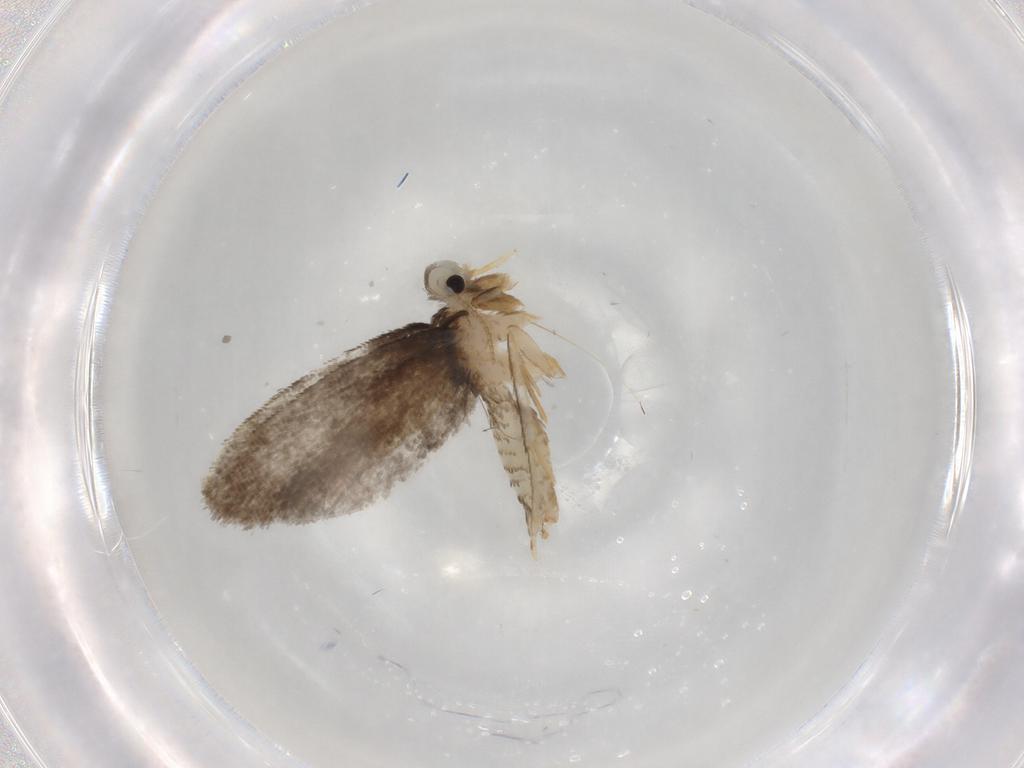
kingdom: Animalia
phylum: Arthropoda
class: Insecta
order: Lepidoptera
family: Psychidae
